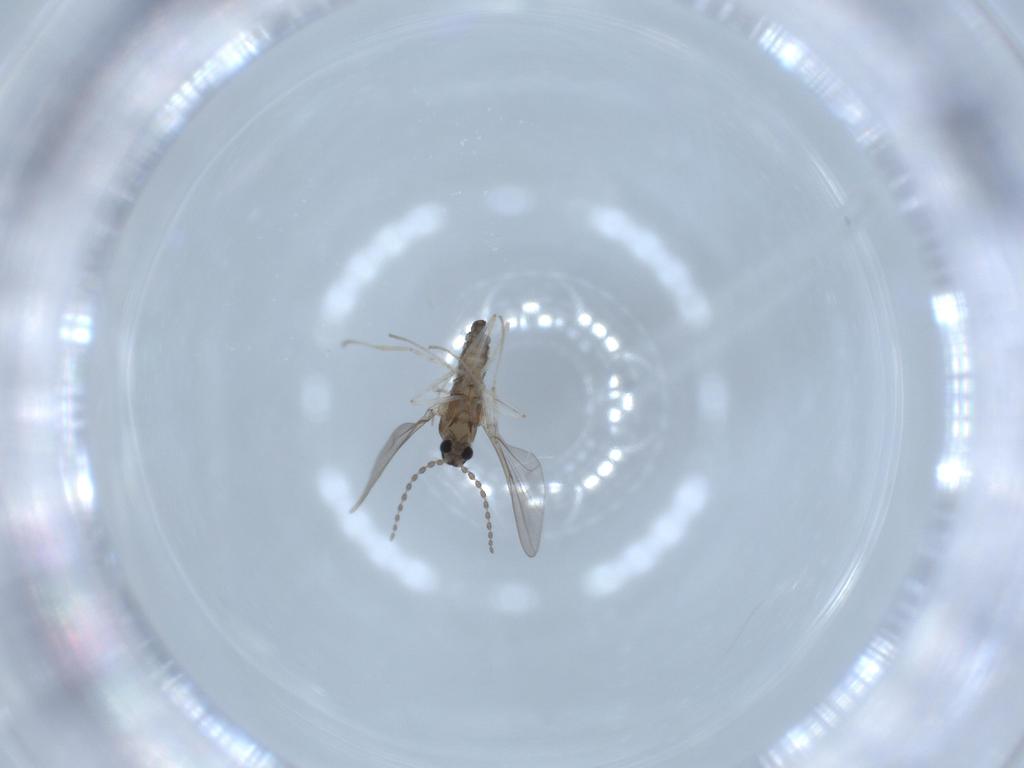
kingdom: Animalia
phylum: Arthropoda
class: Insecta
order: Diptera
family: Cecidomyiidae
